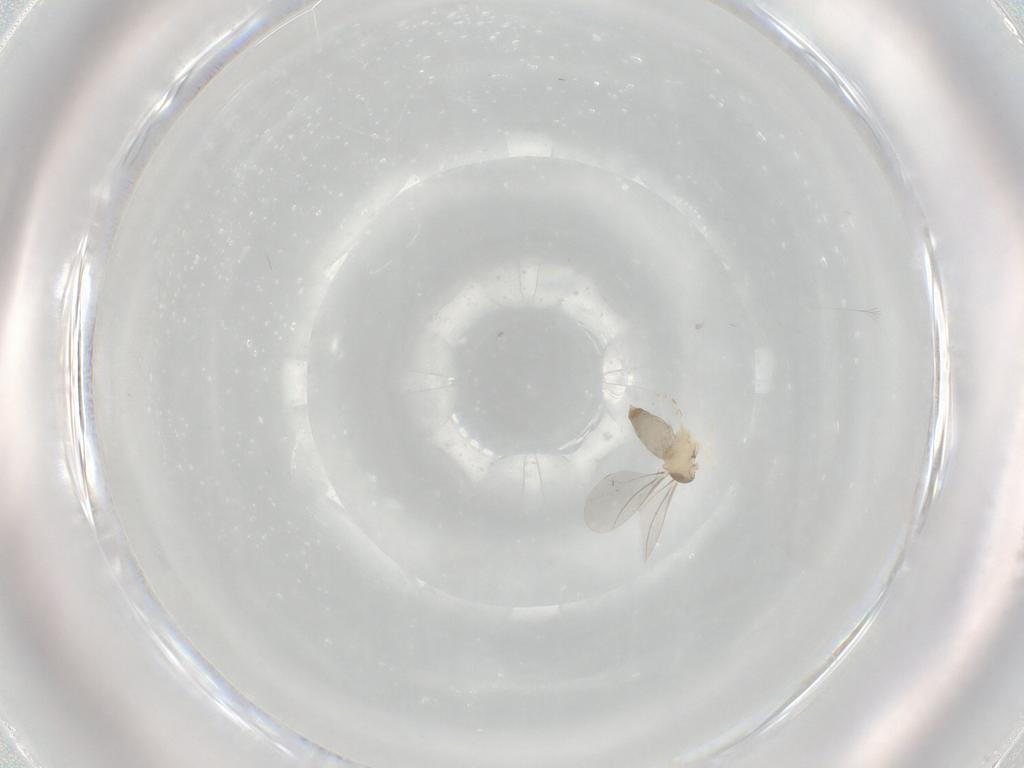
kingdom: Animalia
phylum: Arthropoda
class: Insecta
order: Diptera
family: Cecidomyiidae
